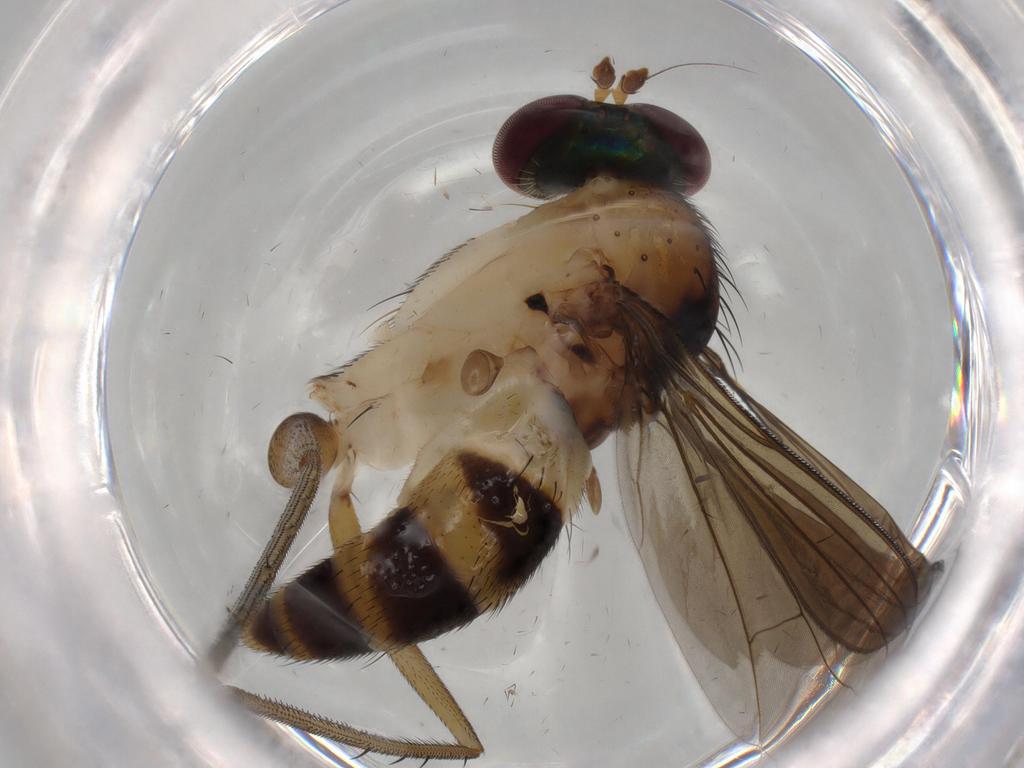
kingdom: Animalia
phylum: Arthropoda
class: Insecta
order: Diptera
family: Dolichopodidae
